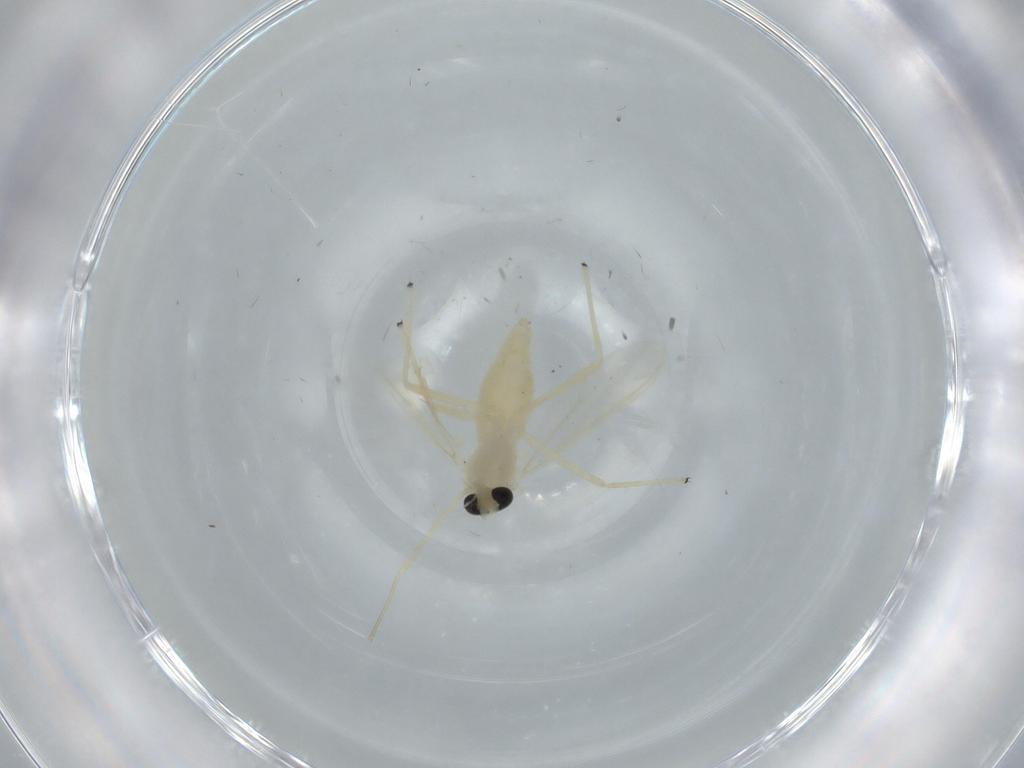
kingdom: Animalia
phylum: Arthropoda
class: Insecta
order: Diptera
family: Chironomidae
